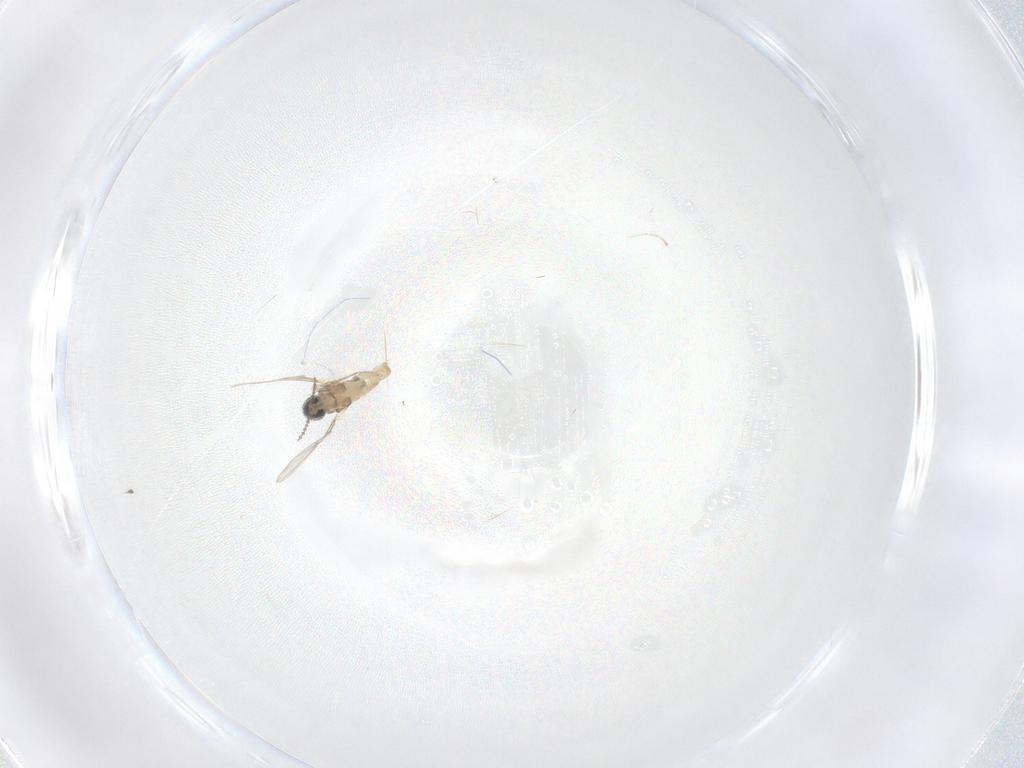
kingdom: Animalia
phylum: Arthropoda
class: Insecta
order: Diptera
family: Cecidomyiidae
